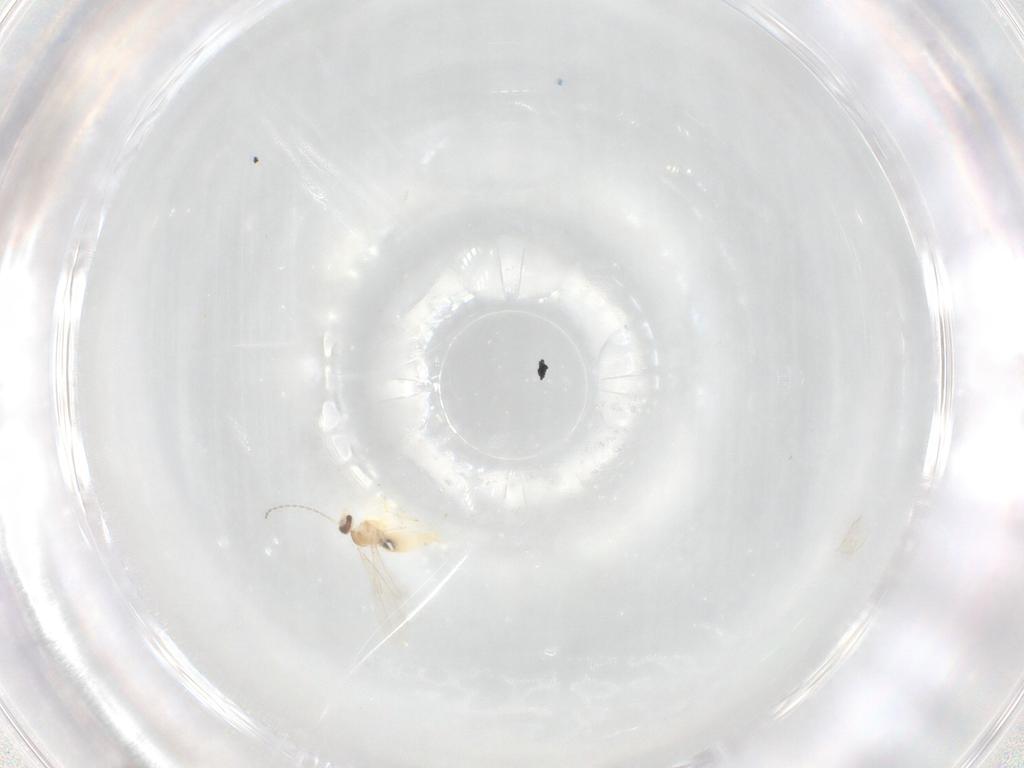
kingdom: Animalia
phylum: Arthropoda
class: Insecta
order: Diptera
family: Cecidomyiidae
